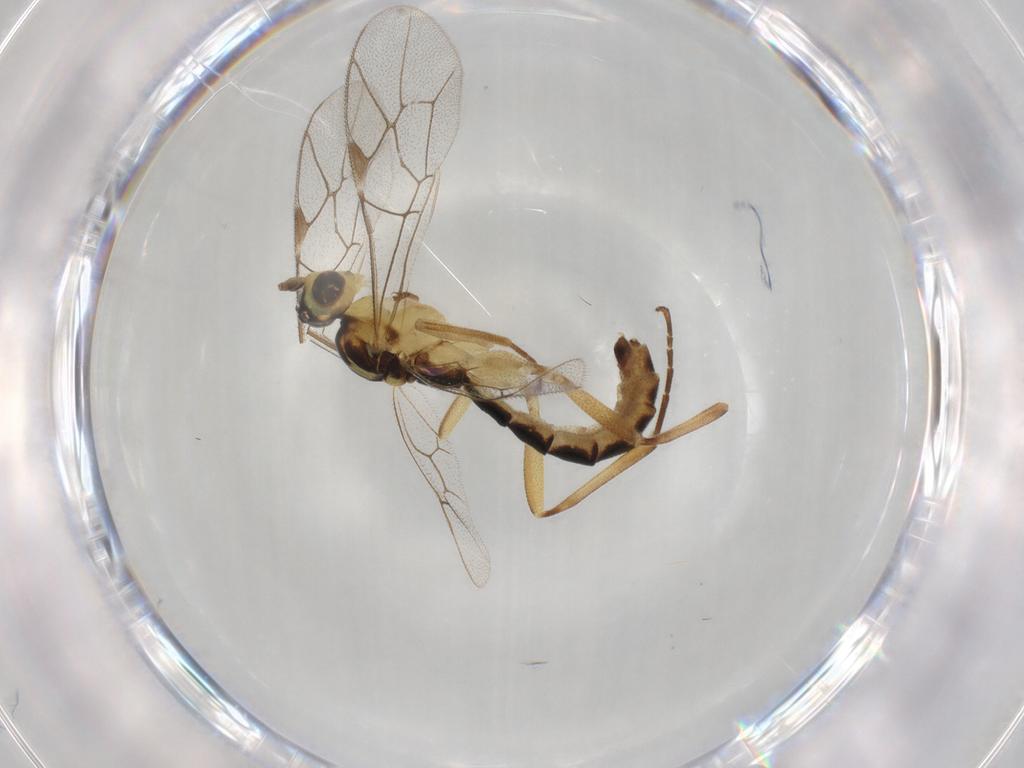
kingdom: Animalia
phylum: Arthropoda
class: Insecta
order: Hymenoptera
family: Ichneumonidae
